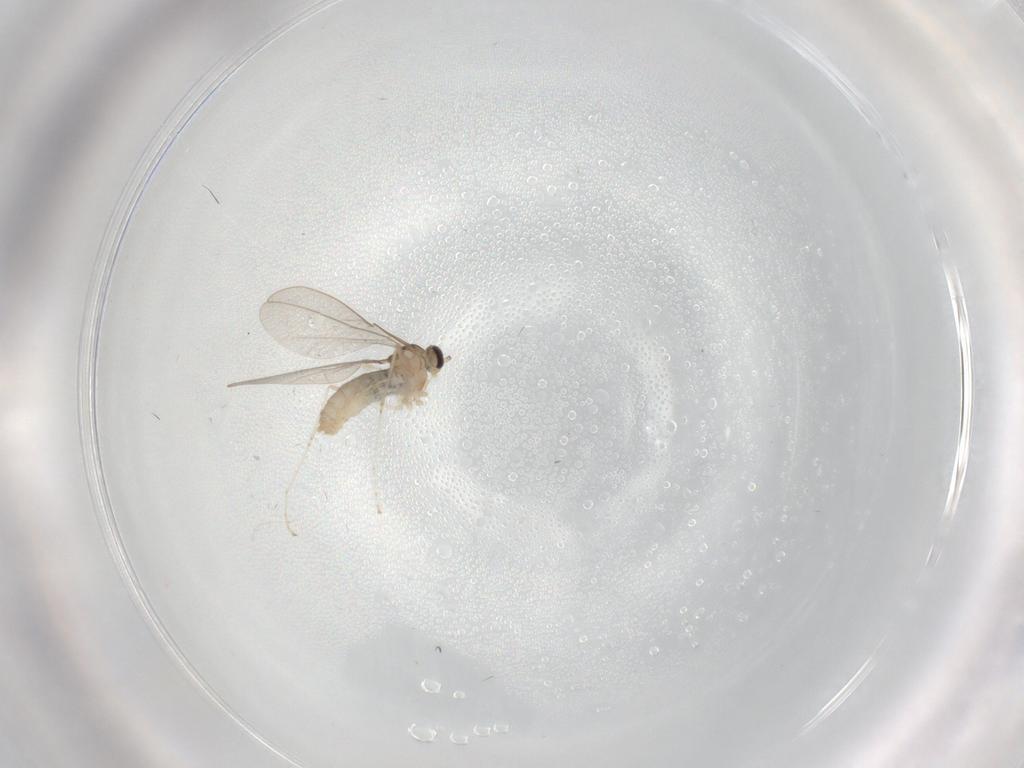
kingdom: Animalia
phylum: Arthropoda
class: Insecta
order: Diptera
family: Cecidomyiidae
